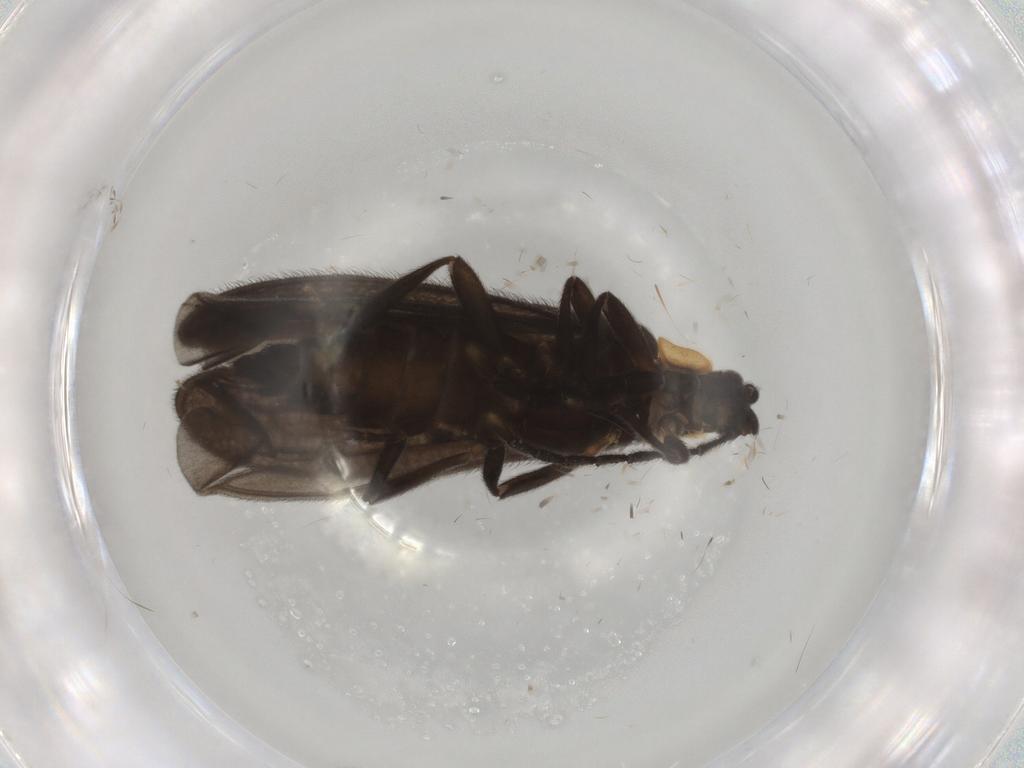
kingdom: Animalia
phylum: Arthropoda
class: Insecta
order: Coleoptera
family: Lycidae
